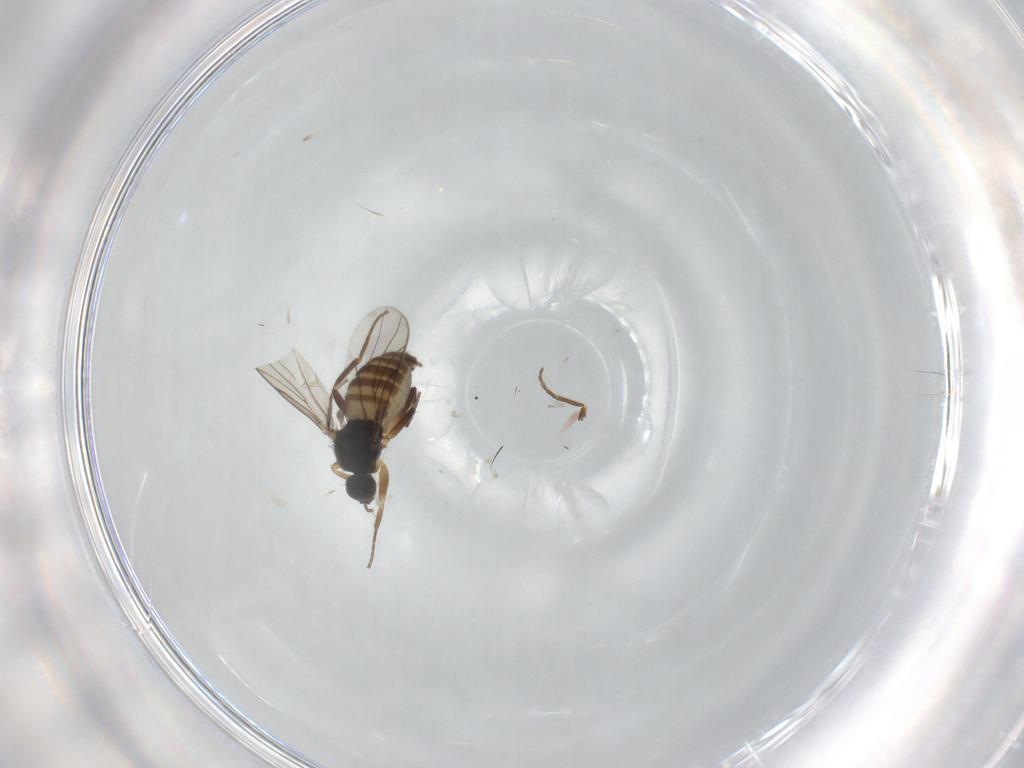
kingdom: Animalia
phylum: Arthropoda
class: Insecta
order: Diptera
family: Hybotidae
